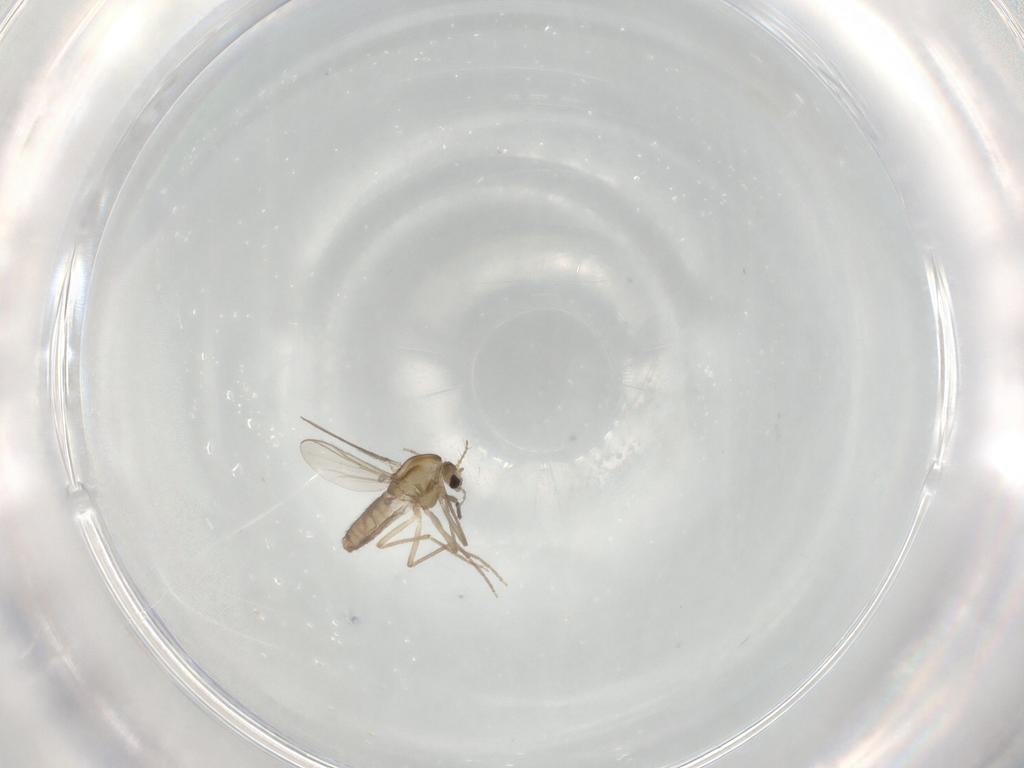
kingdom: Animalia
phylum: Arthropoda
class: Insecta
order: Diptera
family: Chironomidae
